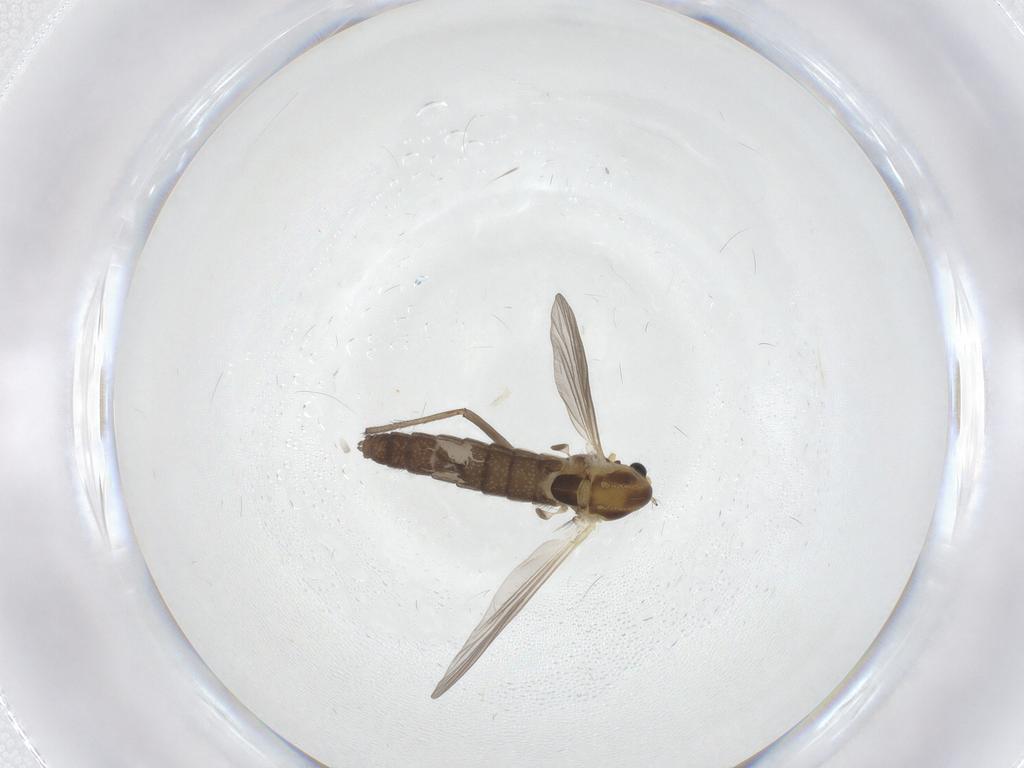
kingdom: Animalia
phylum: Arthropoda
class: Insecta
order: Diptera
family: Chironomidae
